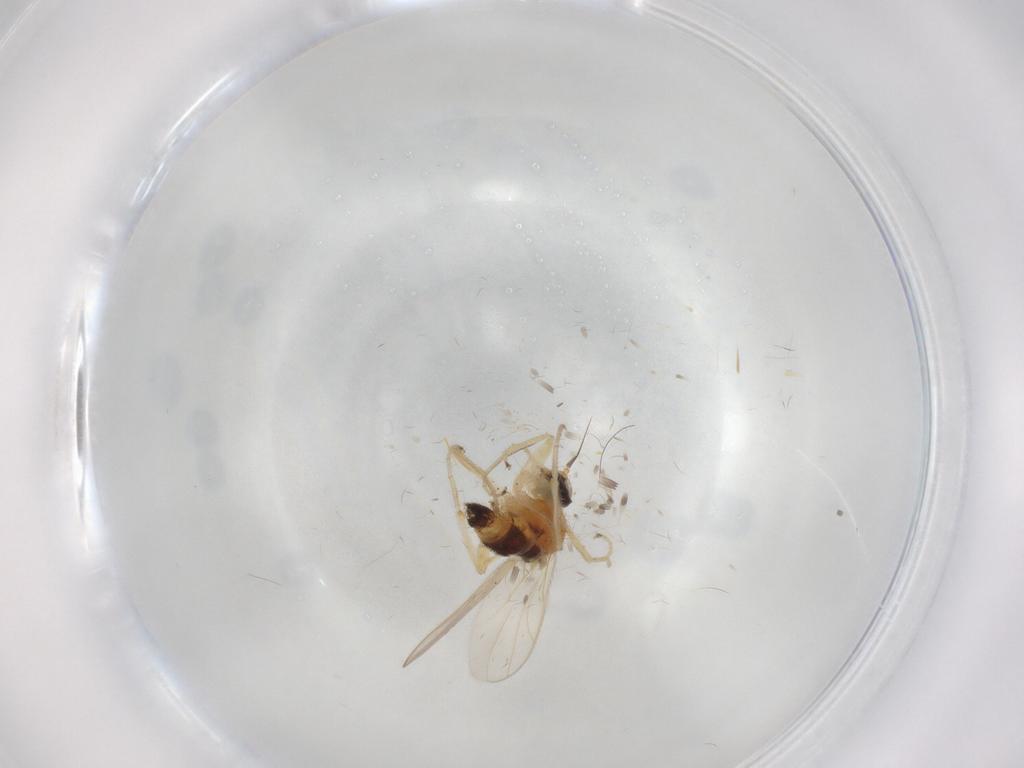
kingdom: Animalia
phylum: Arthropoda
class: Insecta
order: Diptera
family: Hybotidae
